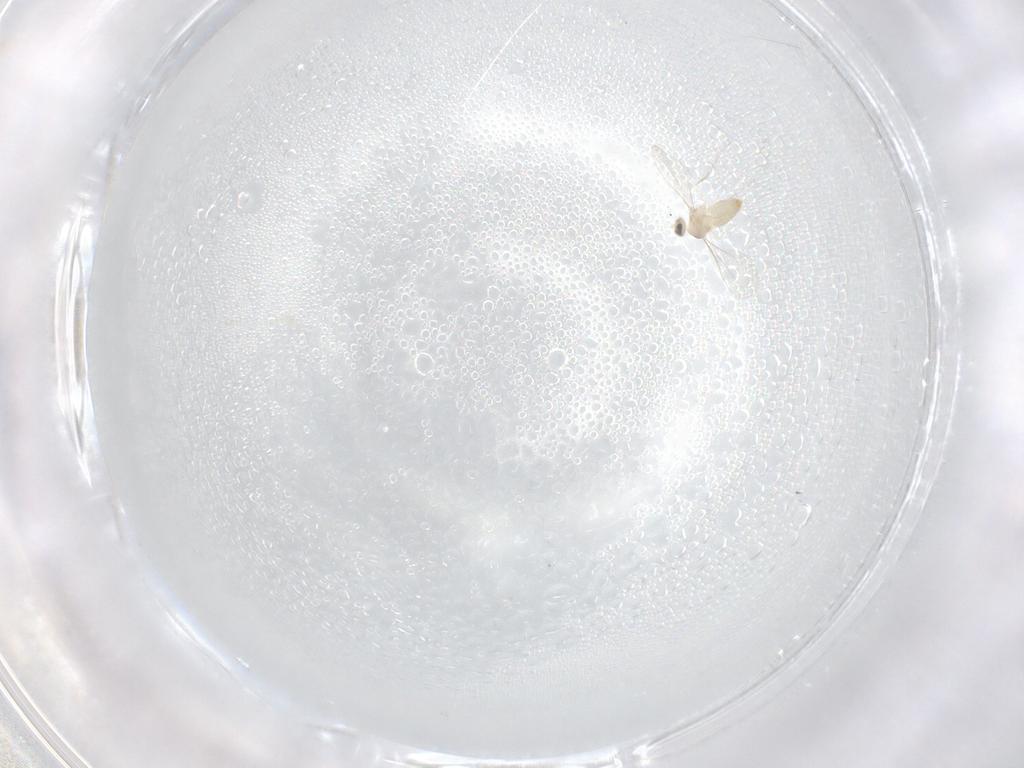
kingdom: Animalia
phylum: Arthropoda
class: Insecta
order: Diptera
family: Cecidomyiidae
